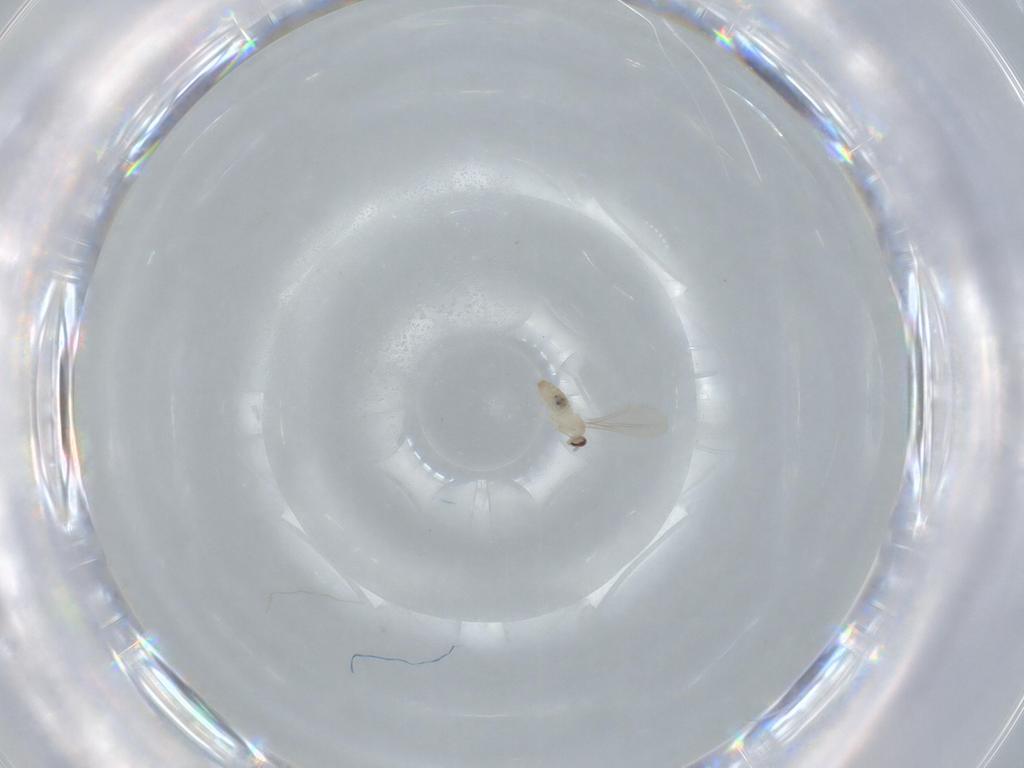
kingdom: Animalia
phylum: Arthropoda
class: Insecta
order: Diptera
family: Cecidomyiidae
